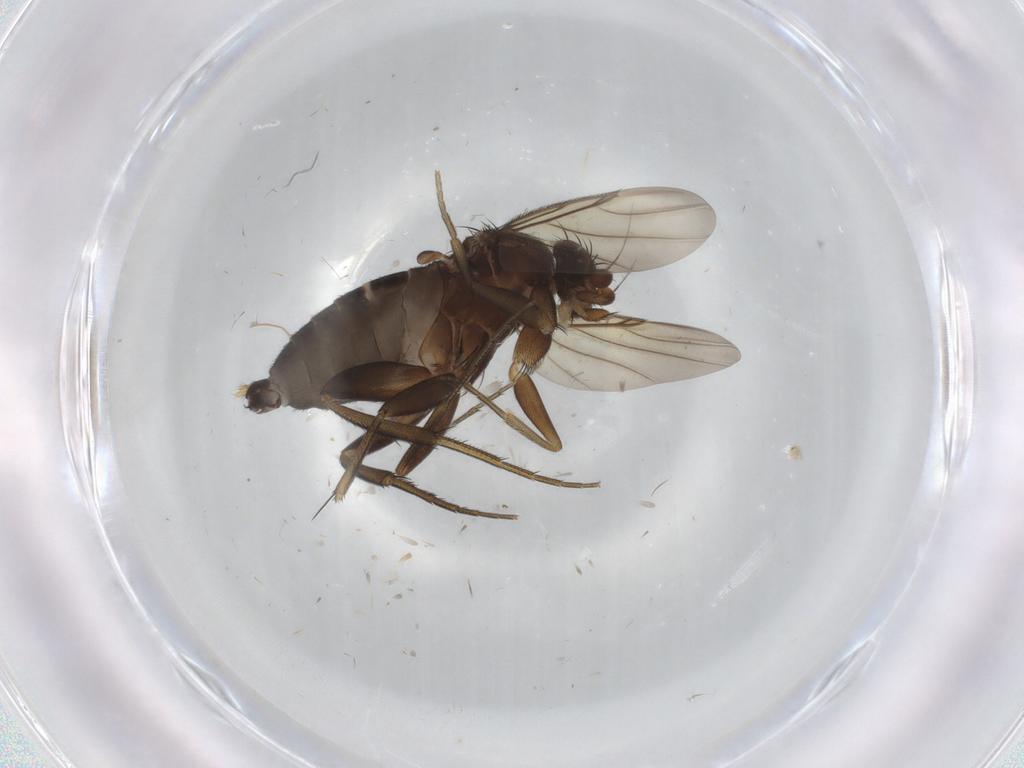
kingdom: Animalia
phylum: Arthropoda
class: Insecta
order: Diptera
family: Phoridae
